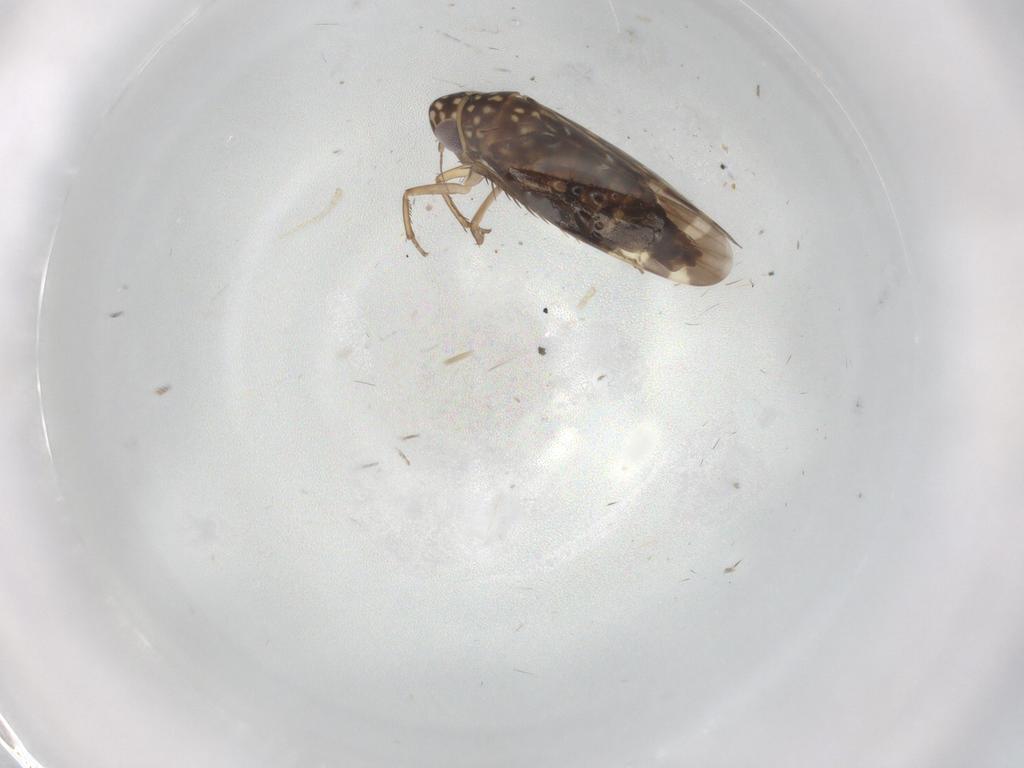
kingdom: Animalia
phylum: Arthropoda
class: Insecta
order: Hemiptera
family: Cicadellidae
